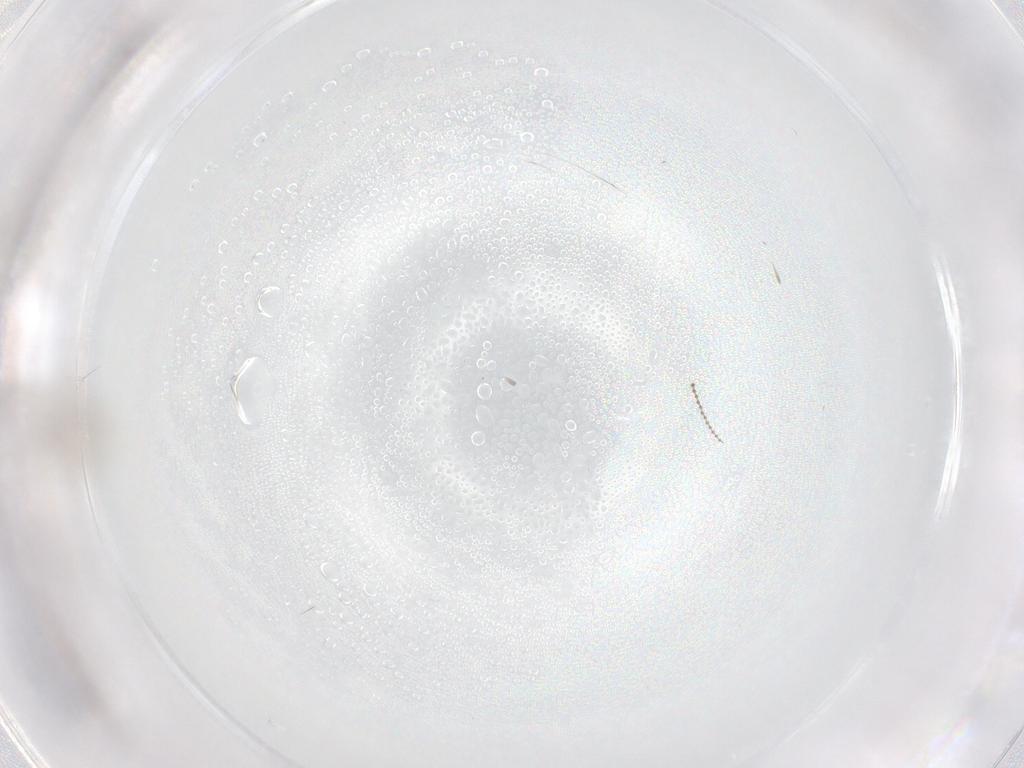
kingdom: Animalia
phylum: Arthropoda
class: Insecta
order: Diptera
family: Sciaridae
